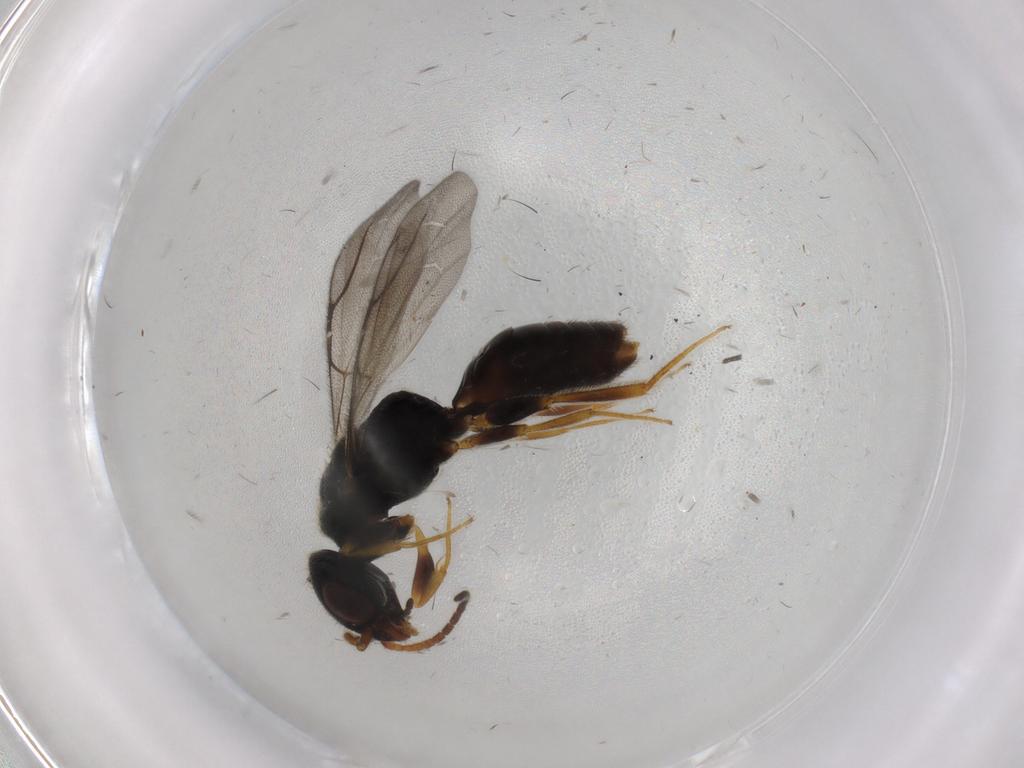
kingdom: Animalia
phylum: Arthropoda
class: Insecta
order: Hymenoptera
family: Bethylidae
